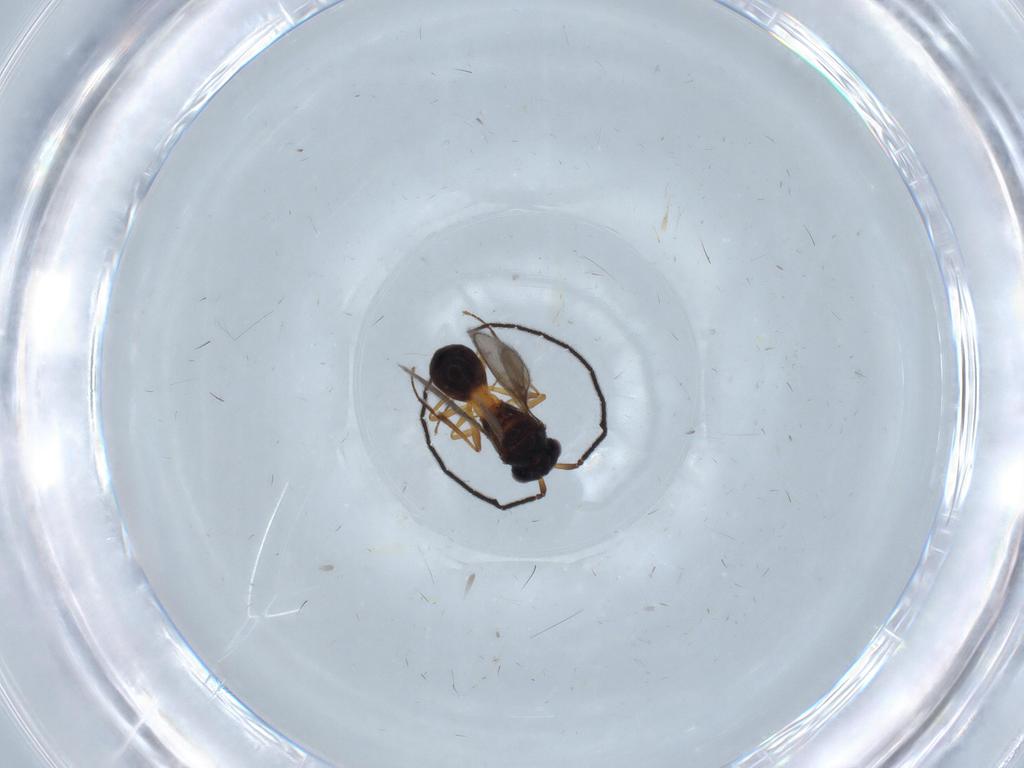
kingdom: Animalia
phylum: Arthropoda
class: Insecta
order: Hymenoptera
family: Scelionidae
